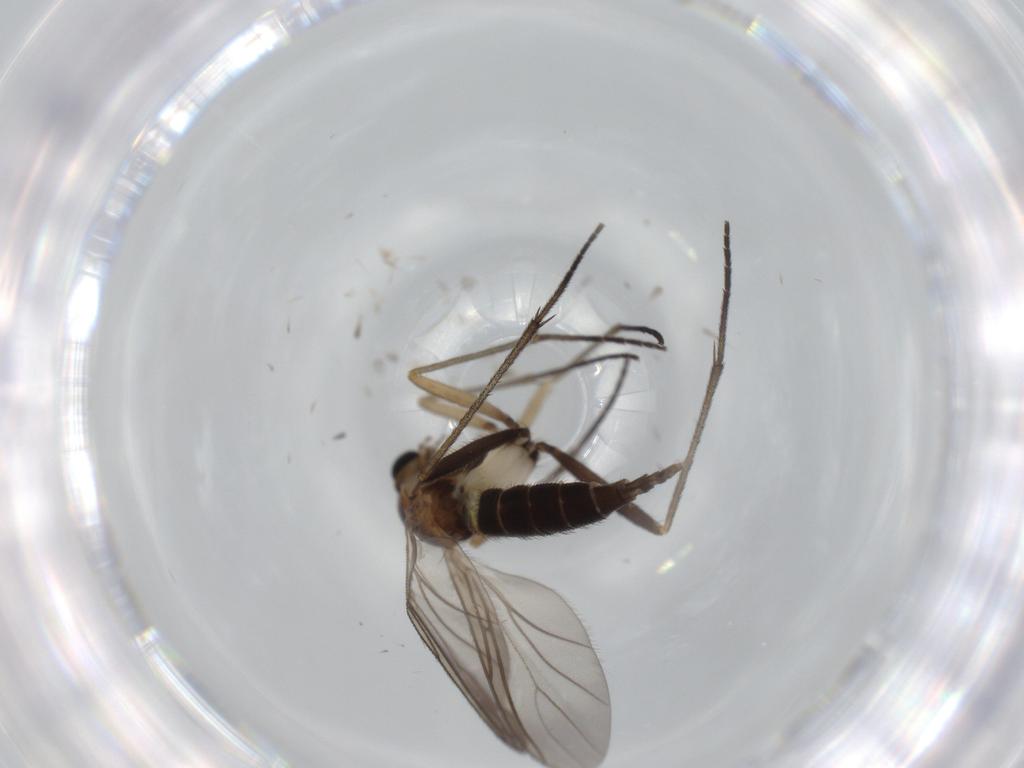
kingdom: Animalia
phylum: Arthropoda
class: Insecta
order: Diptera
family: Sciaridae
